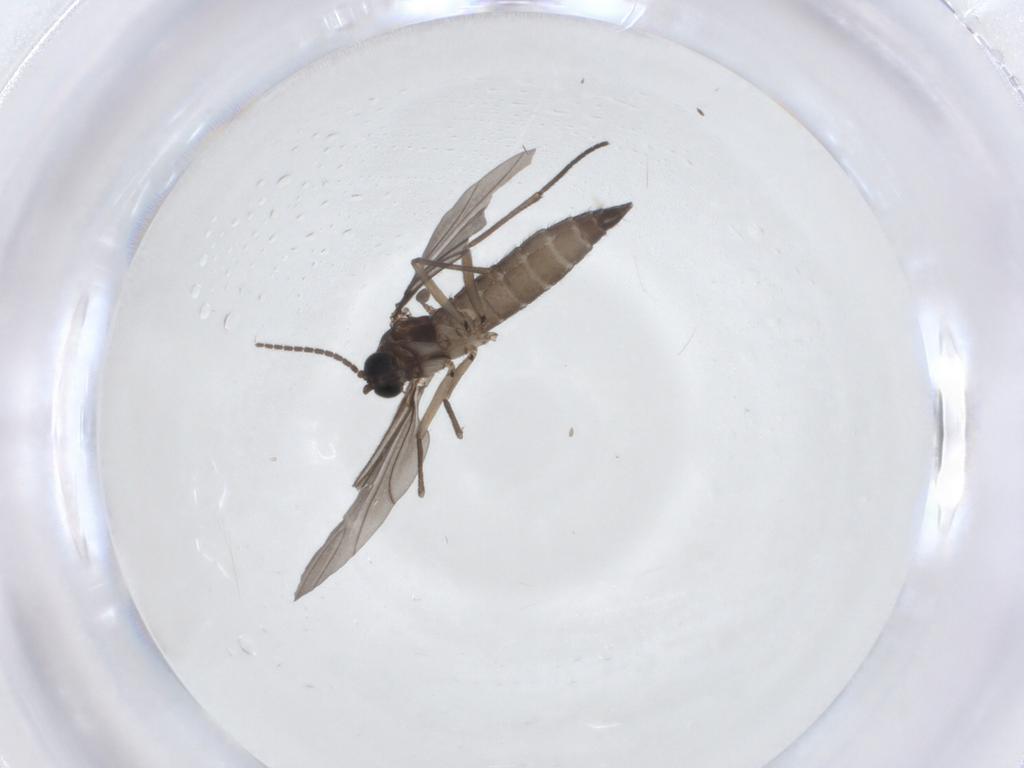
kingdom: Animalia
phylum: Arthropoda
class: Insecta
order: Diptera
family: Sciaridae
